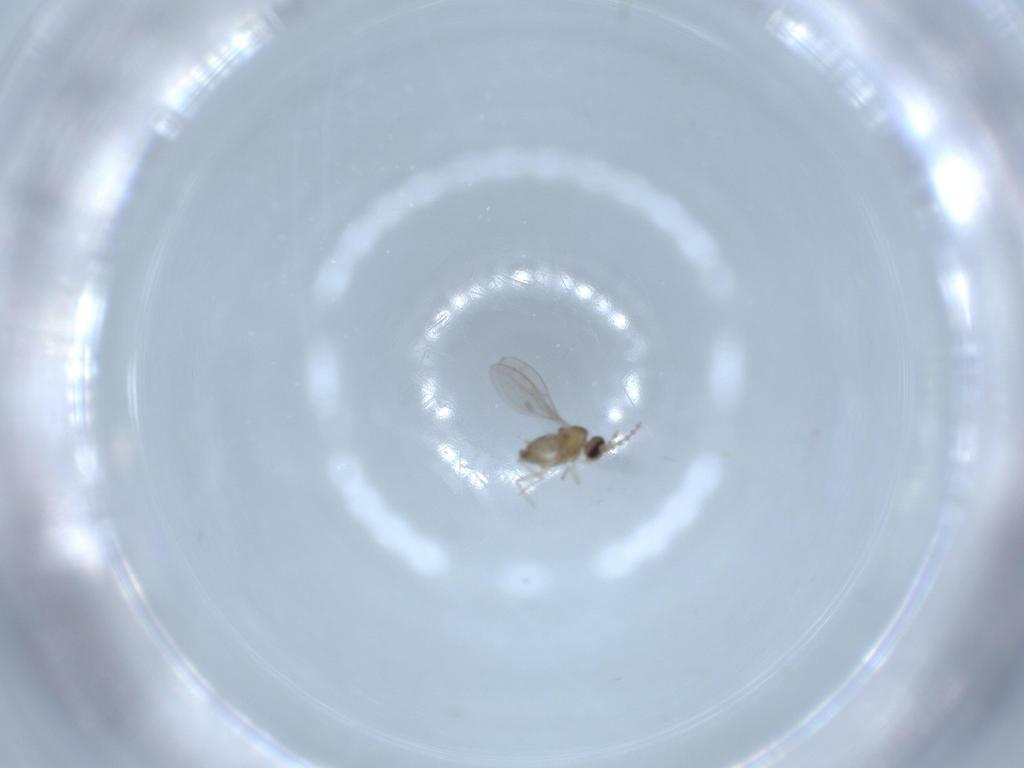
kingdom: Animalia
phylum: Arthropoda
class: Insecta
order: Diptera
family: Cecidomyiidae
